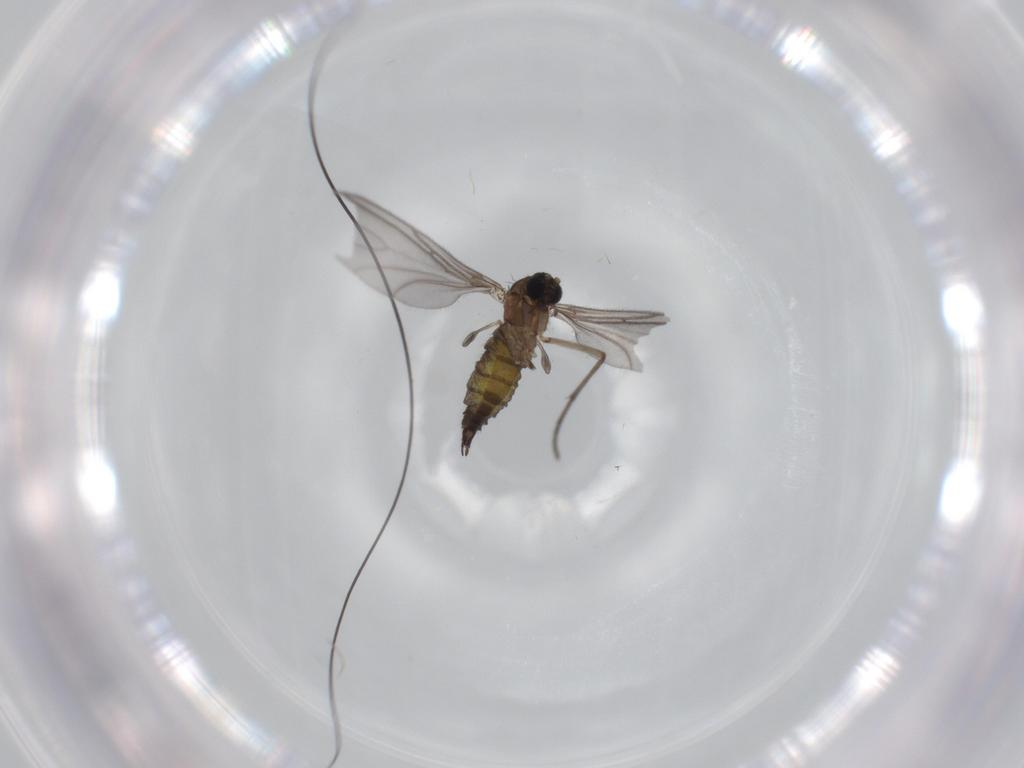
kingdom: Animalia
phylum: Arthropoda
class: Insecta
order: Diptera
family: Sciaridae
